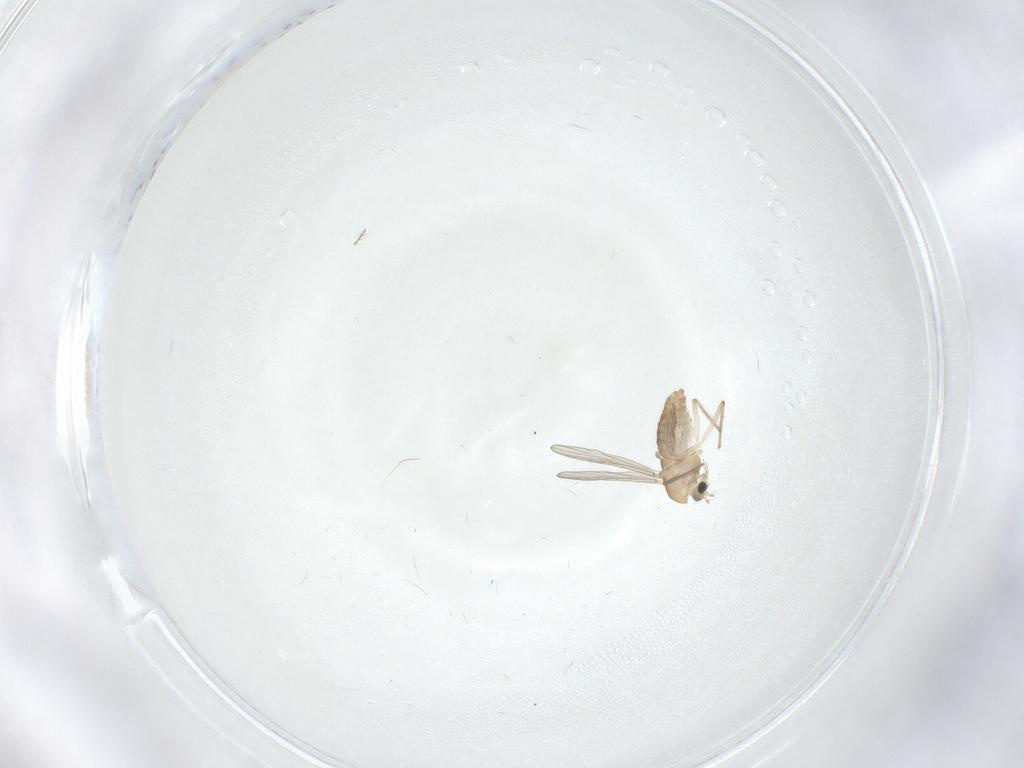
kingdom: Animalia
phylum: Arthropoda
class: Insecta
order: Diptera
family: Chironomidae
